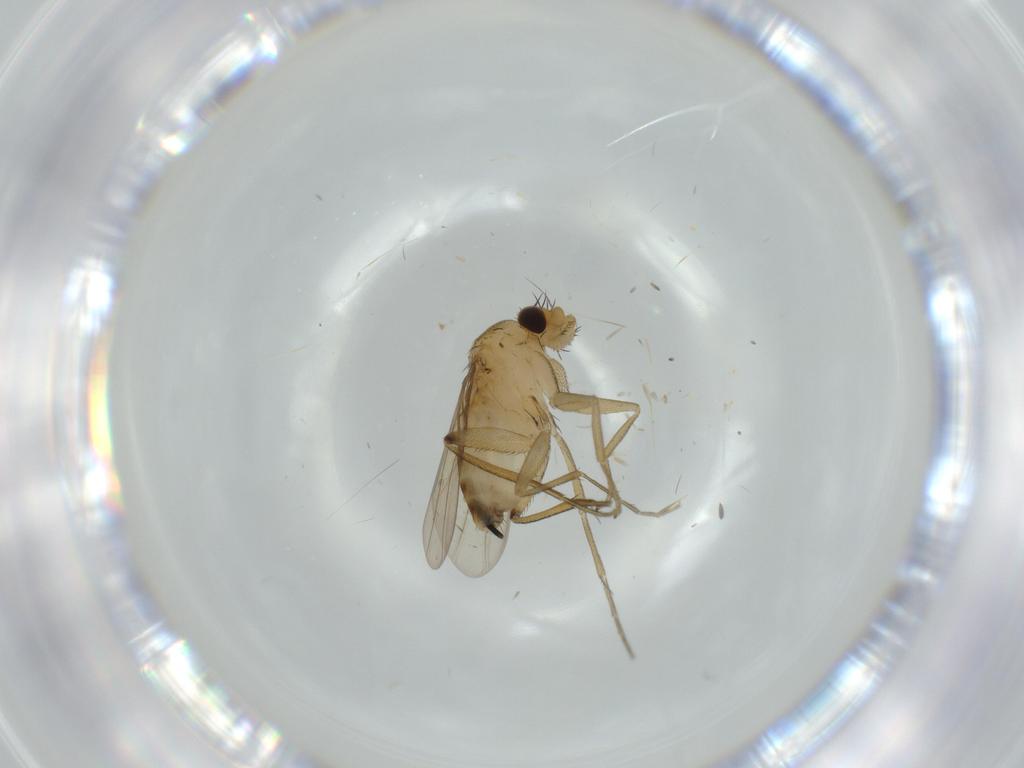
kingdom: Animalia
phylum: Arthropoda
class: Insecta
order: Diptera
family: Phoridae
